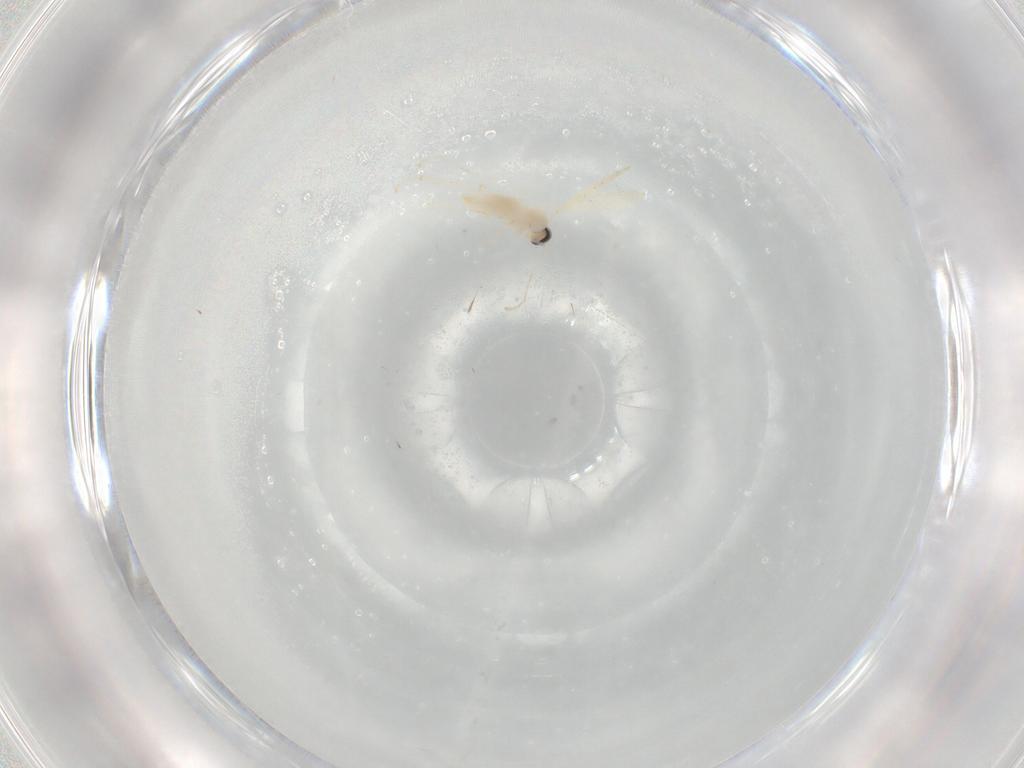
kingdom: Animalia
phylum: Arthropoda
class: Insecta
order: Diptera
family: Cecidomyiidae
